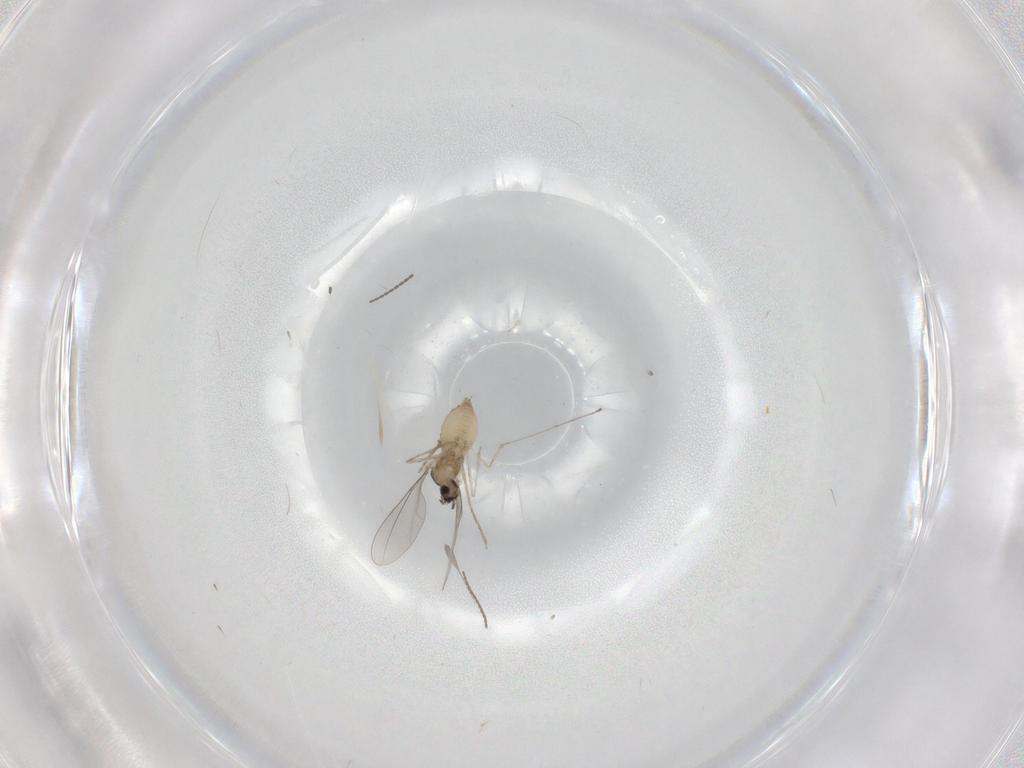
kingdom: Animalia
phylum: Arthropoda
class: Insecta
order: Diptera
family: Cecidomyiidae
